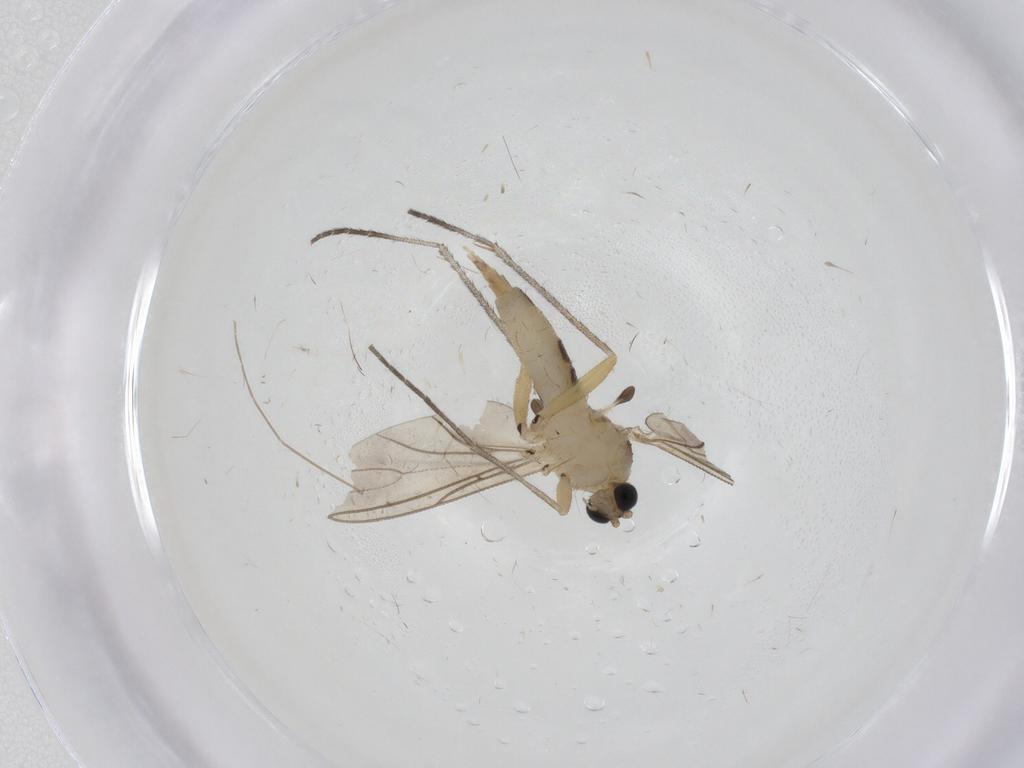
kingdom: Animalia
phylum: Arthropoda
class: Insecta
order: Diptera
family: Sciaridae
